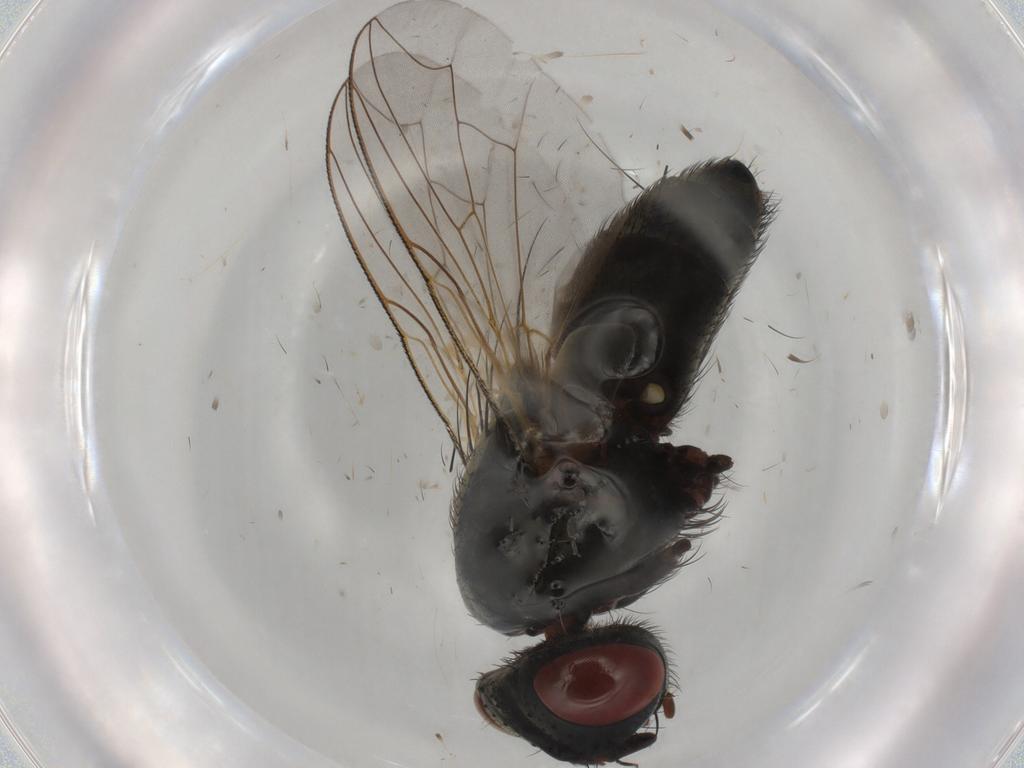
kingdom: Animalia
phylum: Arthropoda
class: Insecta
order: Diptera
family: Sarcophagidae
